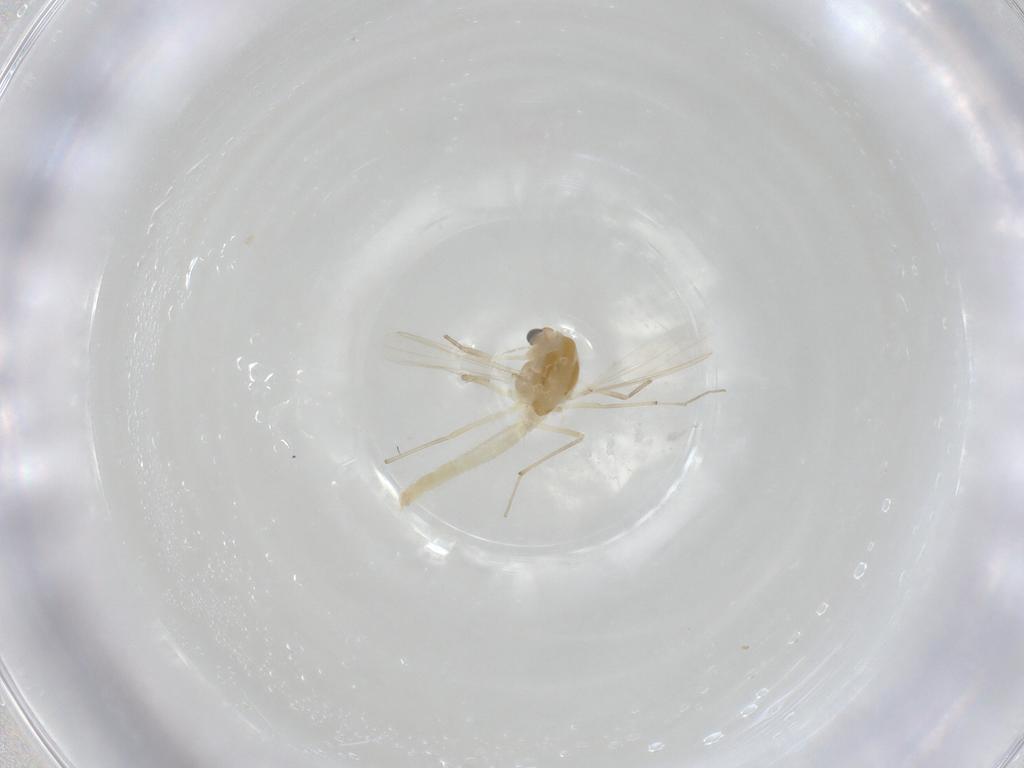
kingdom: Animalia
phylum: Arthropoda
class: Insecta
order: Diptera
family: Chironomidae
